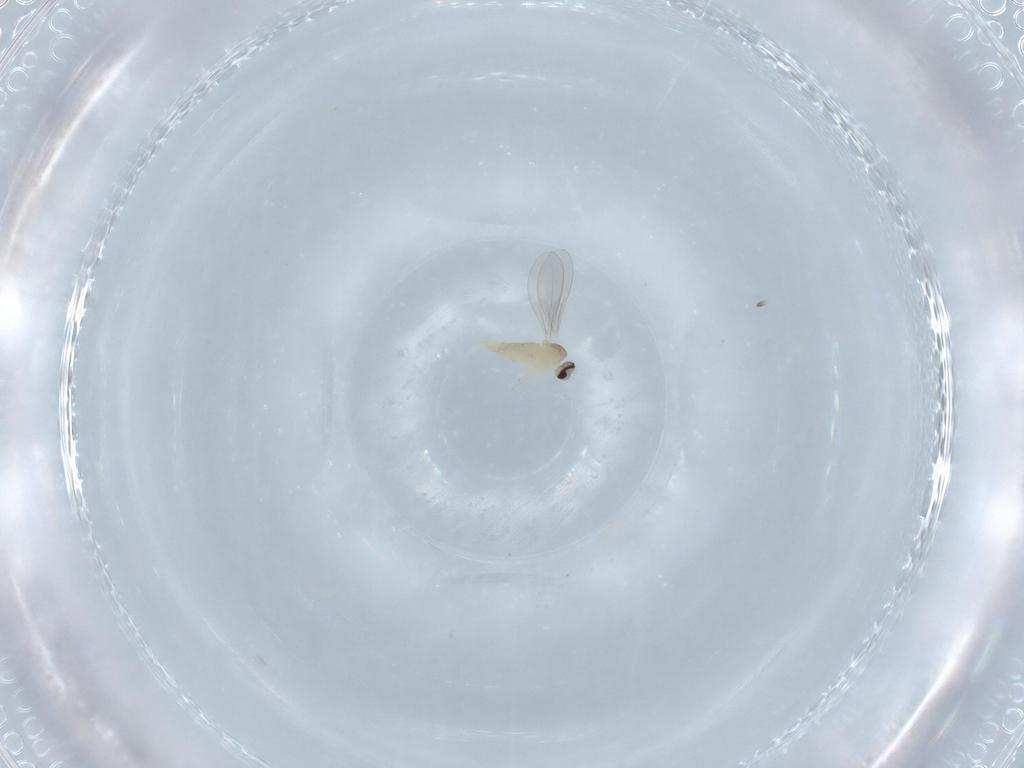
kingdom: Animalia
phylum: Arthropoda
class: Insecta
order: Diptera
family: Cecidomyiidae
